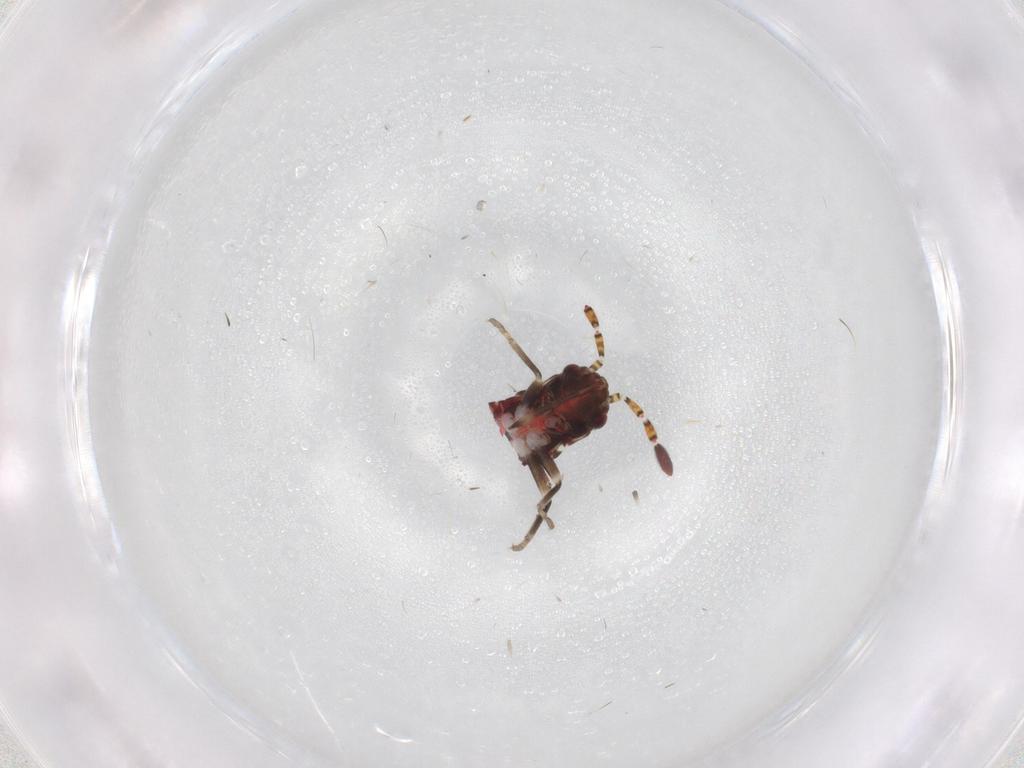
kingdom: Animalia
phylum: Arthropoda
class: Insecta
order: Hemiptera
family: Rhyparochromidae
